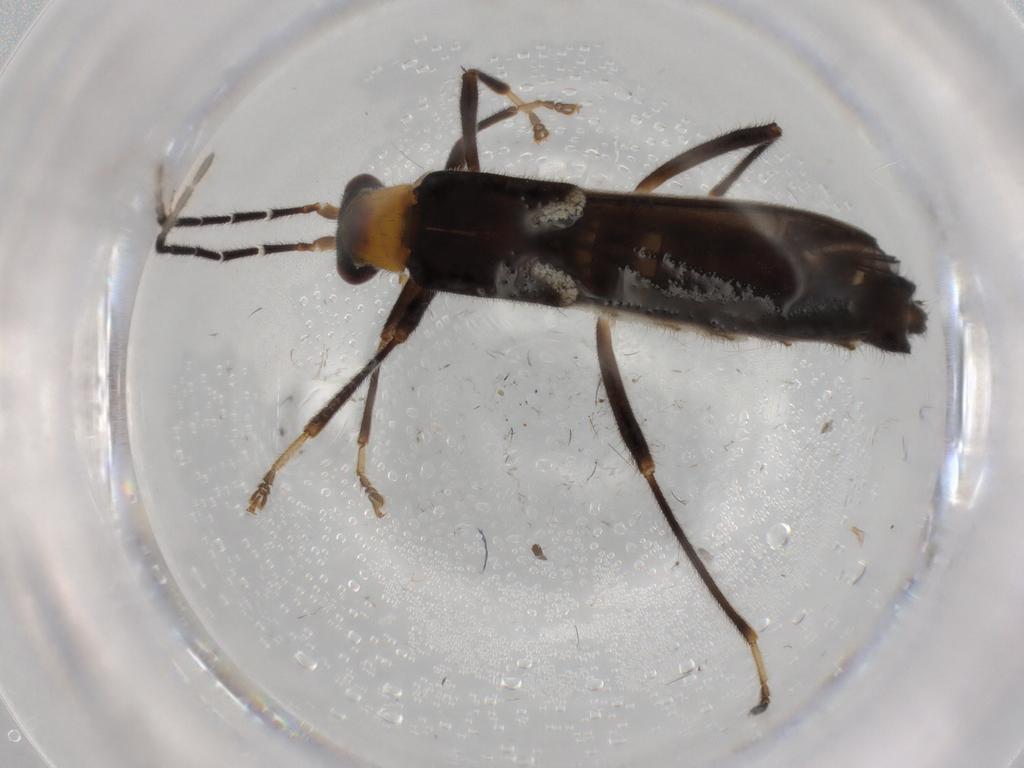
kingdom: Animalia
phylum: Arthropoda
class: Insecta
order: Coleoptera
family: Cantharidae
